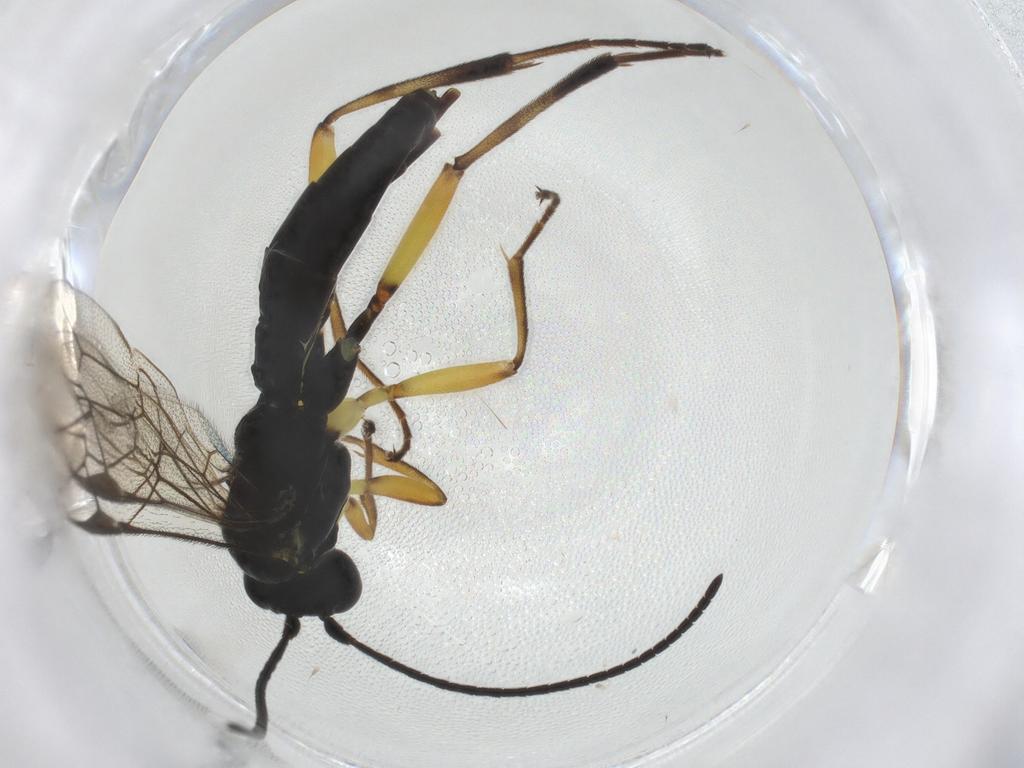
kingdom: Animalia
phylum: Arthropoda
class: Insecta
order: Hymenoptera
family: Ichneumonidae
